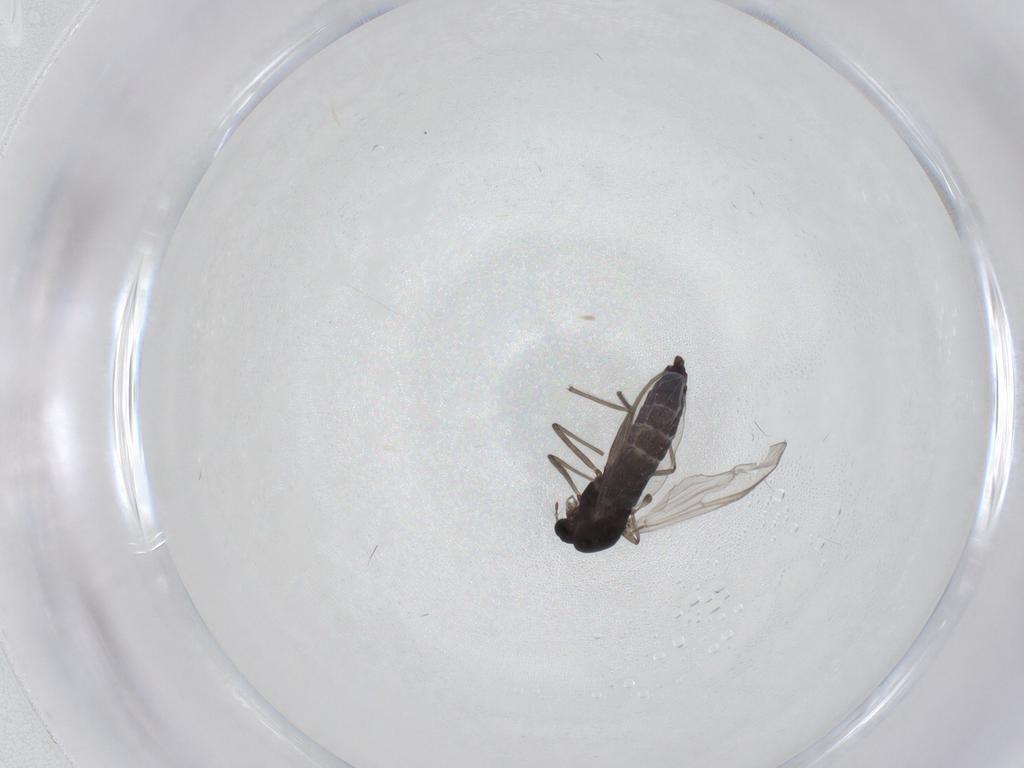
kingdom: Animalia
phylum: Arthropoda
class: Insecta
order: Diptera
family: Chironomidae
